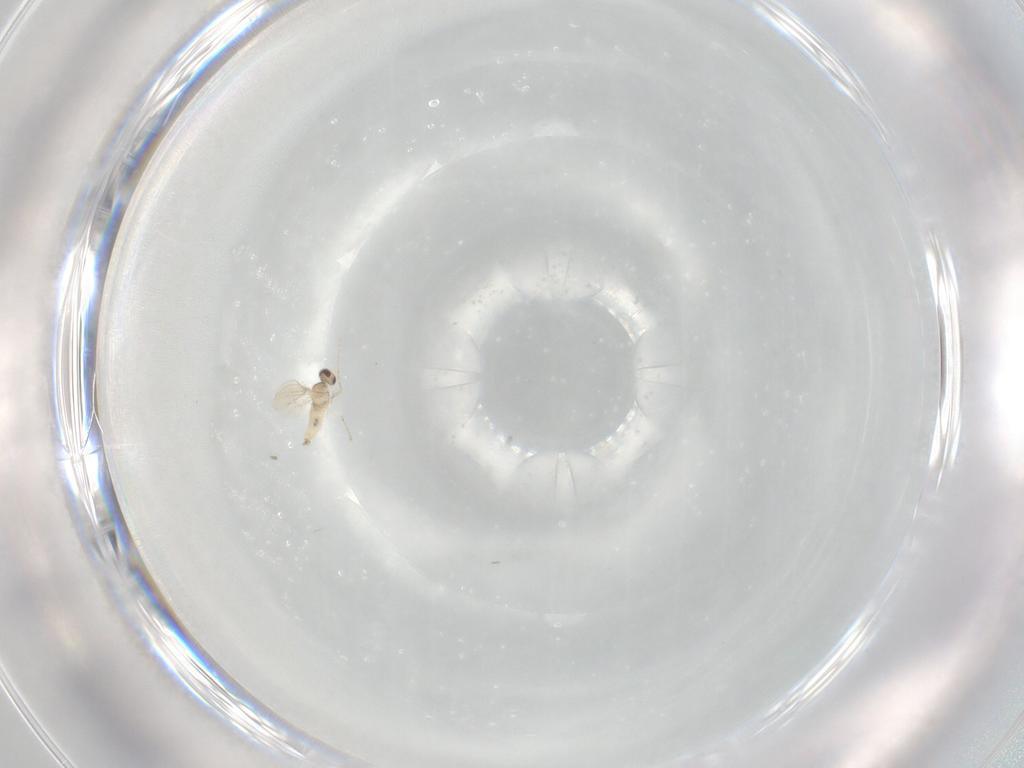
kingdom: Animalia
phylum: Arthropoda
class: Insecta
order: Diptera
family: Cecidomyiidae
